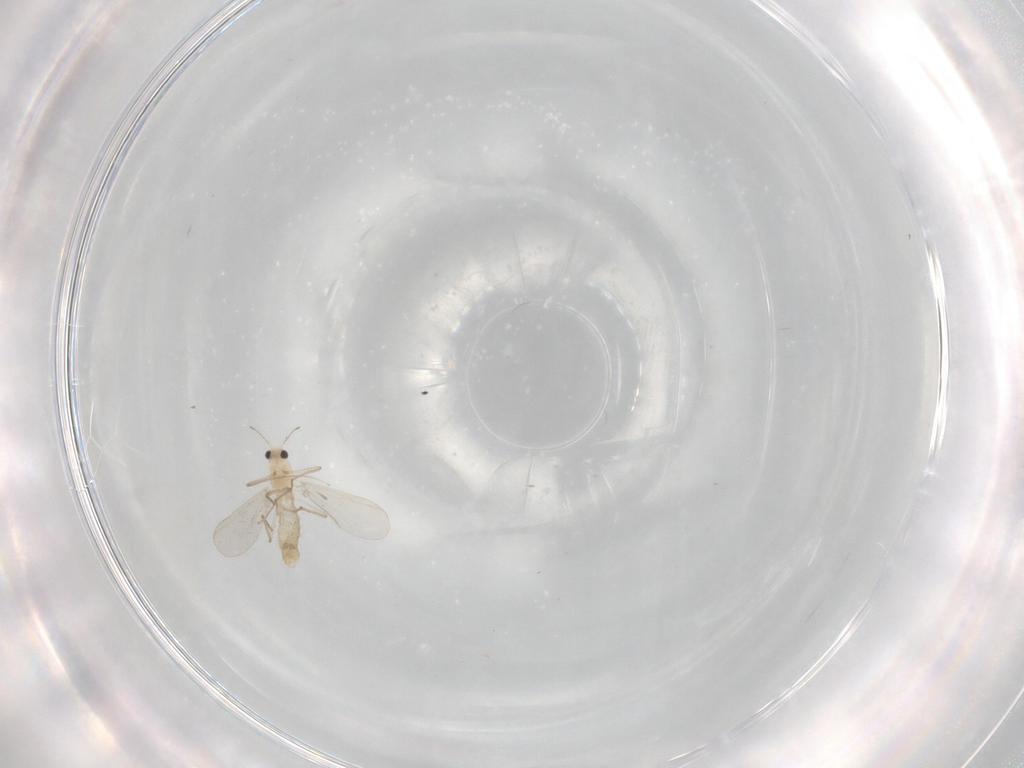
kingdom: Animalia
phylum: Arthropoda
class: Insecta
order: Diptera
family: Chironomidae
